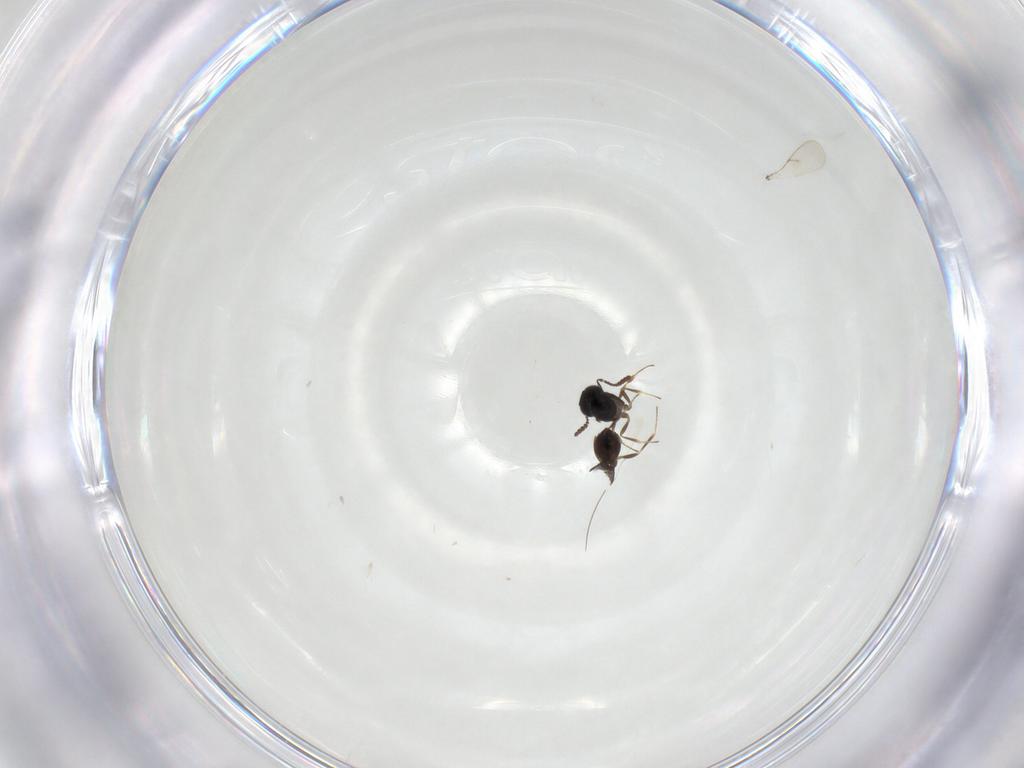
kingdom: Animalia
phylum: Arthropoda
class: Insecta
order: Hymenoptera
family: Scelionidae
